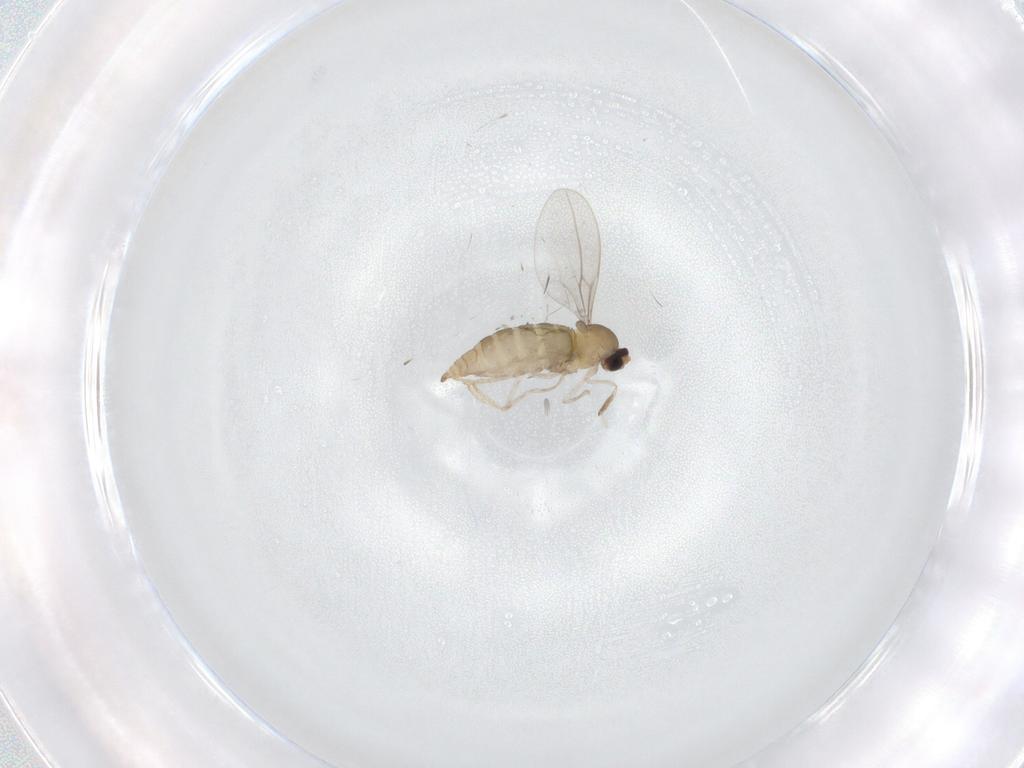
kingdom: Animalia
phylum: Arthropoda
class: Insecta
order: Diptera
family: Cecidomyiidae
